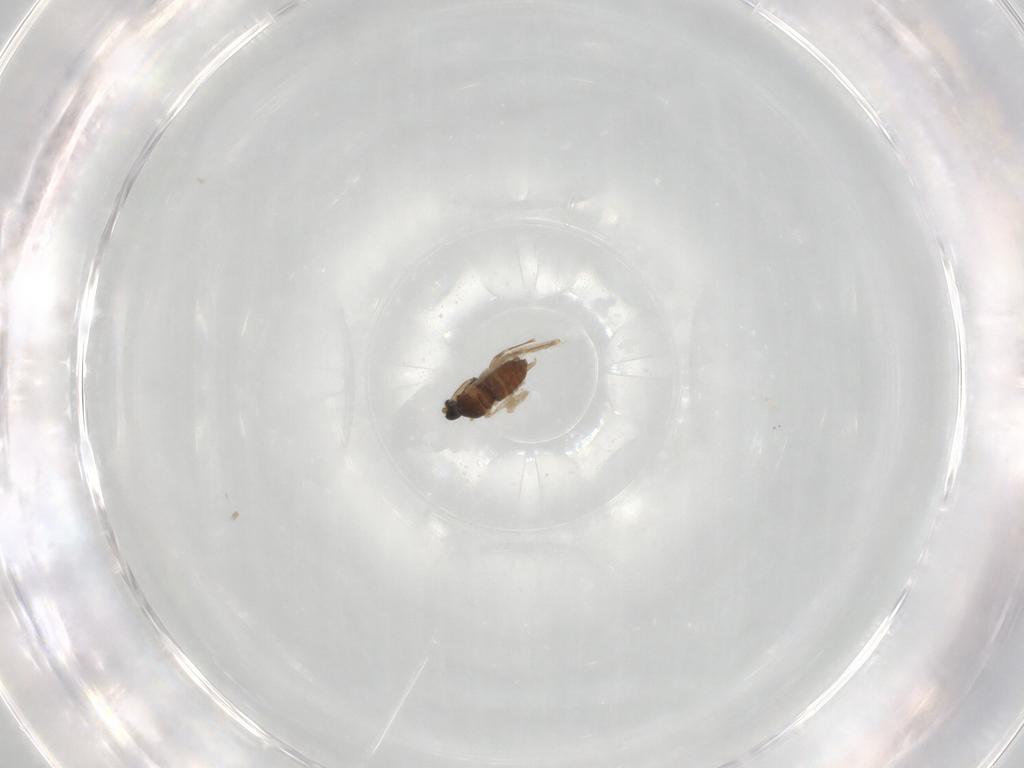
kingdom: Animalia
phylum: Arthropoda
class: Insecta
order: Diptera
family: Cecidomyiidae
